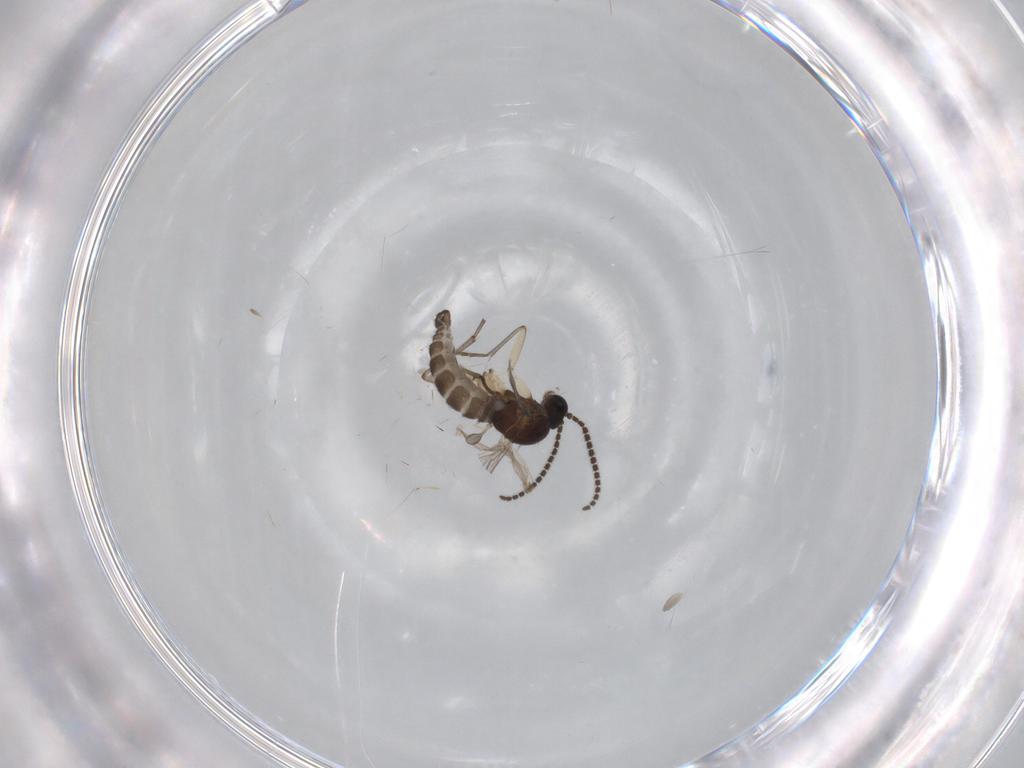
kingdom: Animalia
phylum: Arthropoda
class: Insecta
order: Diptera
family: Sciaridae
